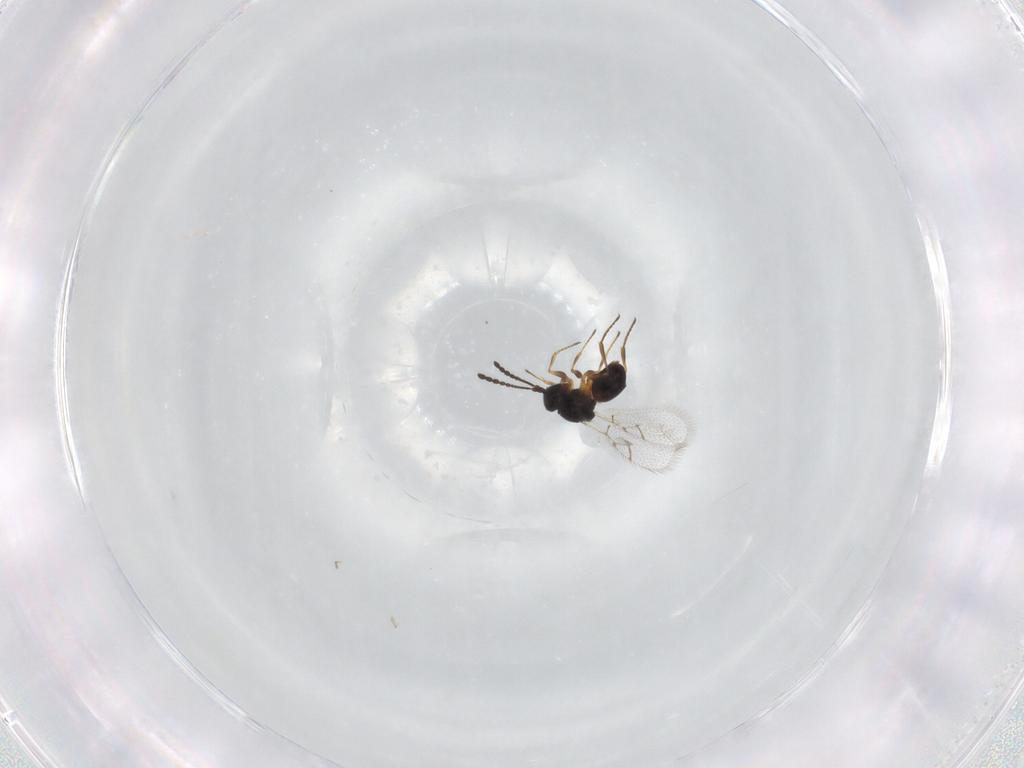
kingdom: Animalia
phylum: Arthropoda
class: Insecta
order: Hymenoptera
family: Figitidae
